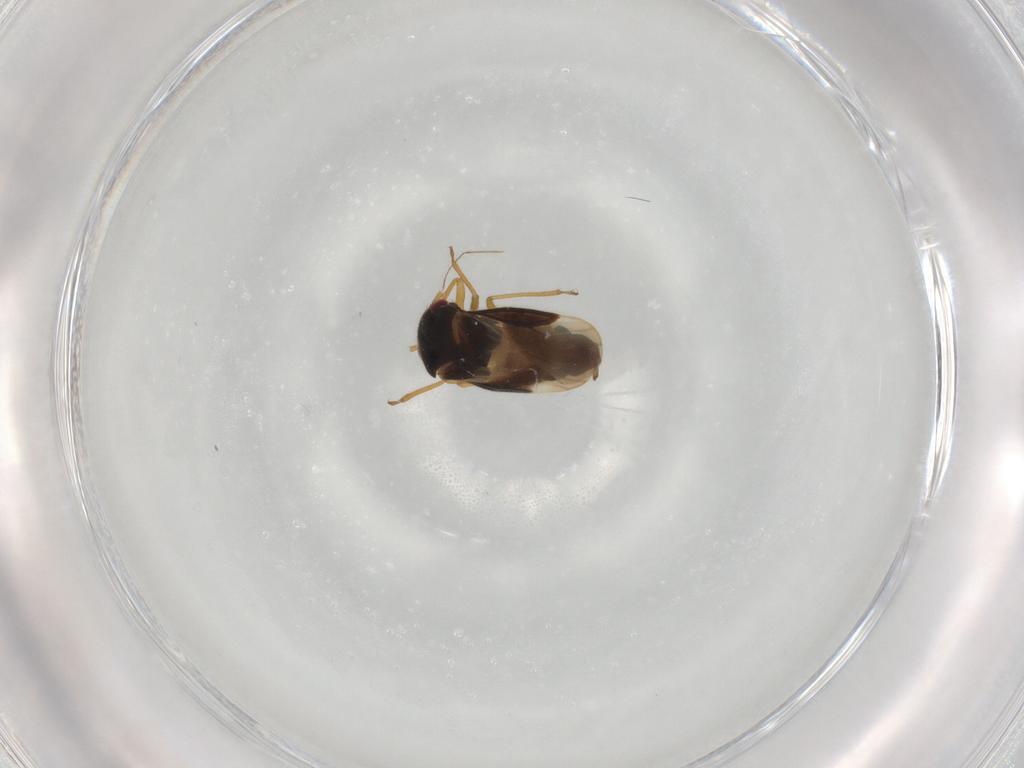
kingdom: Animalia
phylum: Arthropoda
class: Insecta
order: Hemiptera
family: Schizopteridae
